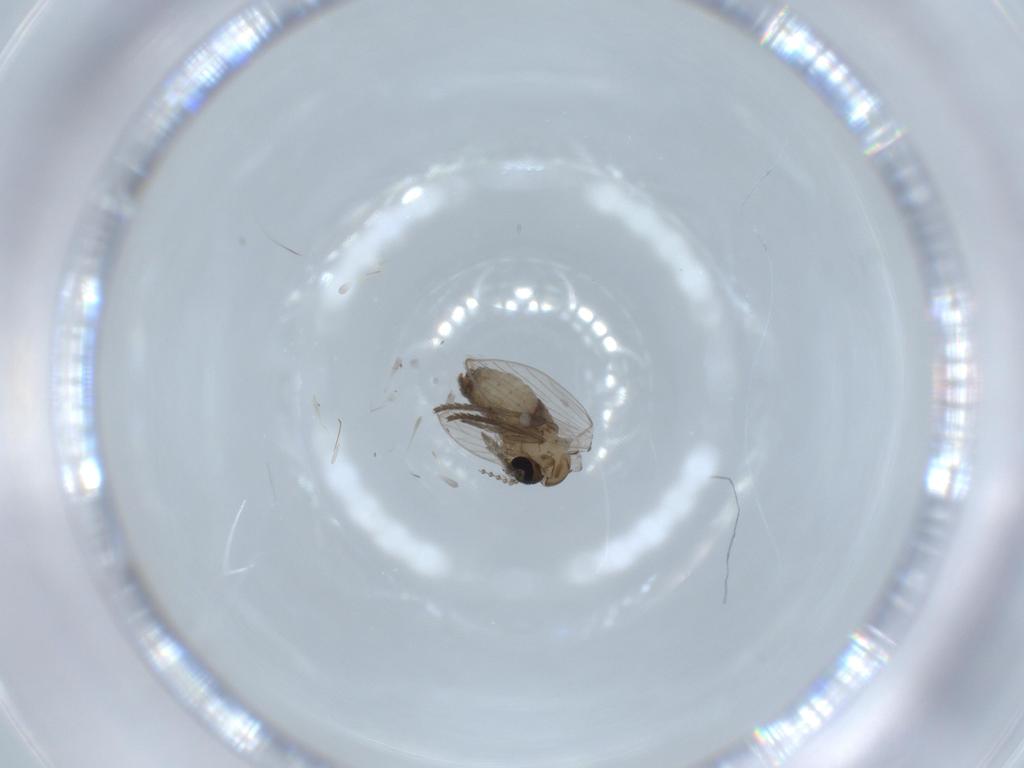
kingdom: Animalia
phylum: Arthropoda
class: Insecta
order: Diptera
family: Psychodidae
